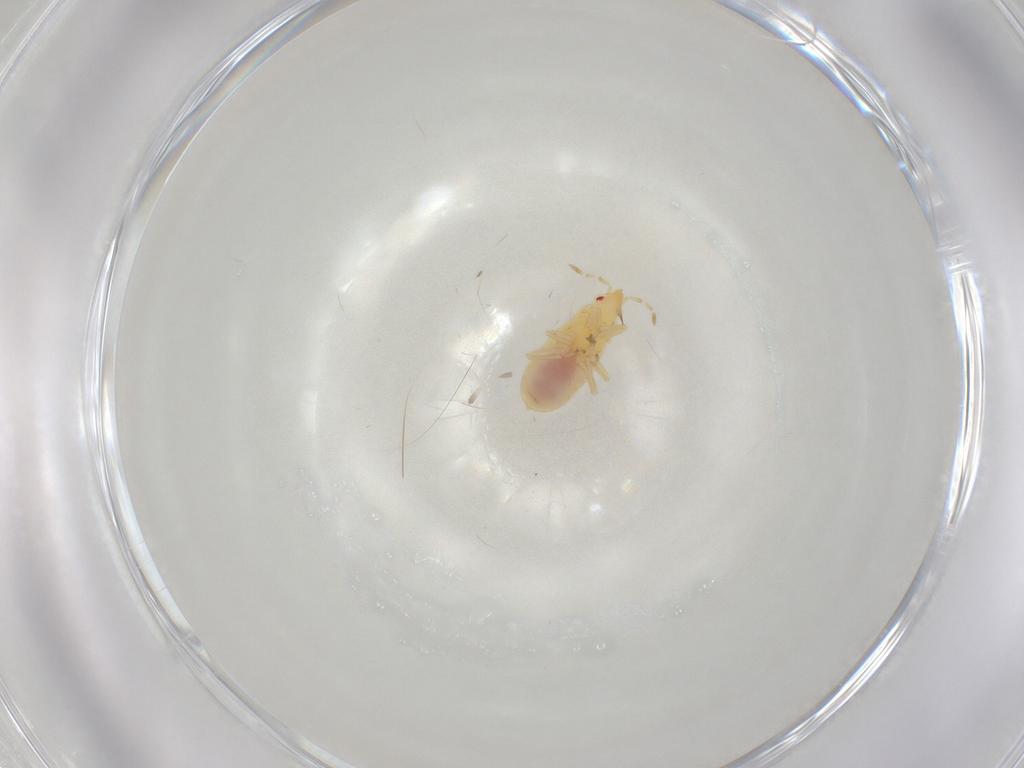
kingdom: Animalia
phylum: Arthropoda
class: Insecta
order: Hemiptera
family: Anthocoridae
